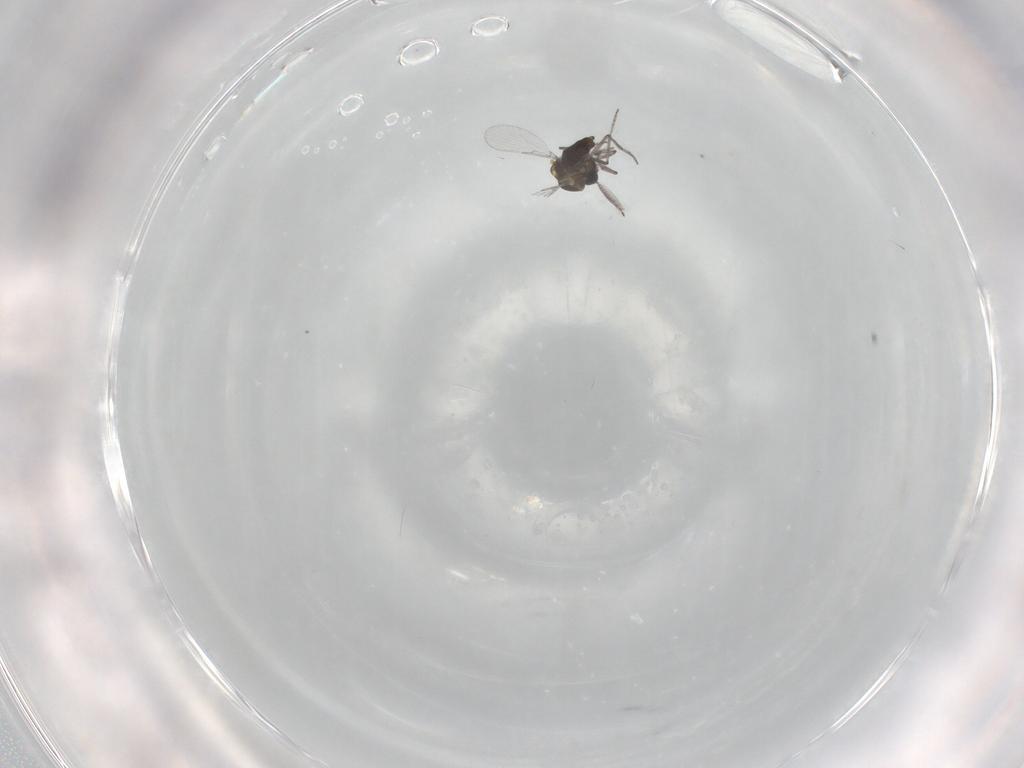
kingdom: Animalia
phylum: Arthropoda
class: Insecta
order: Diptera
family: Ceratopogonidae
